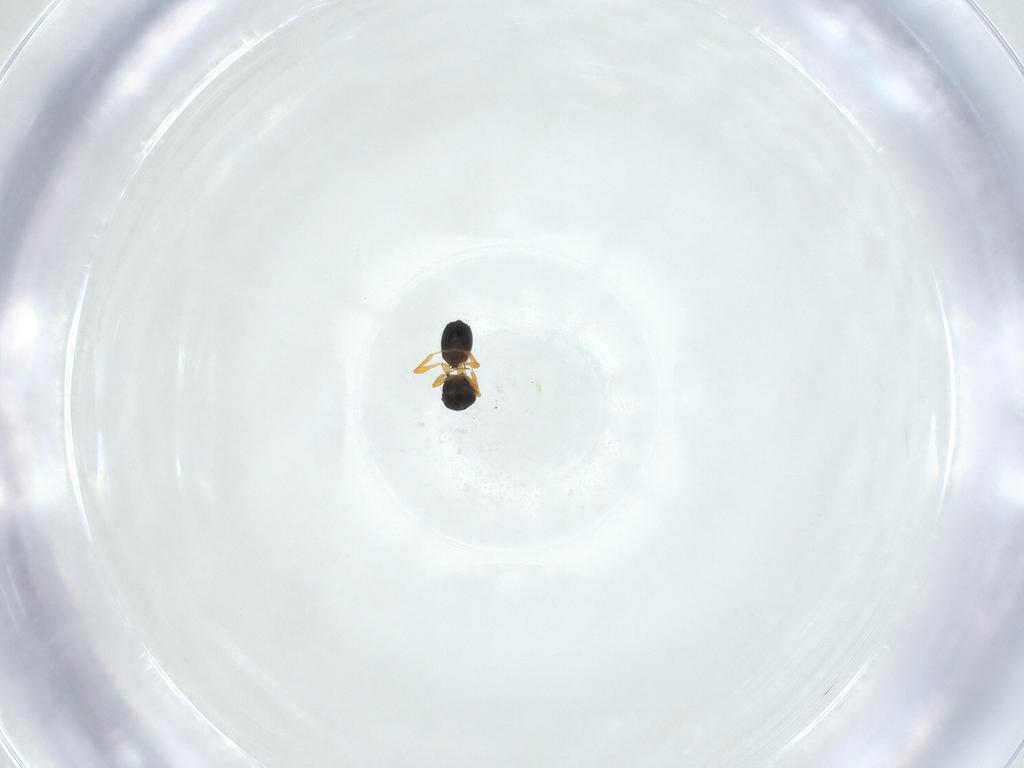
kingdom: Animalia
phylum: Arthropoda
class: Insecta
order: Hymenoptera
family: Platygastridae
